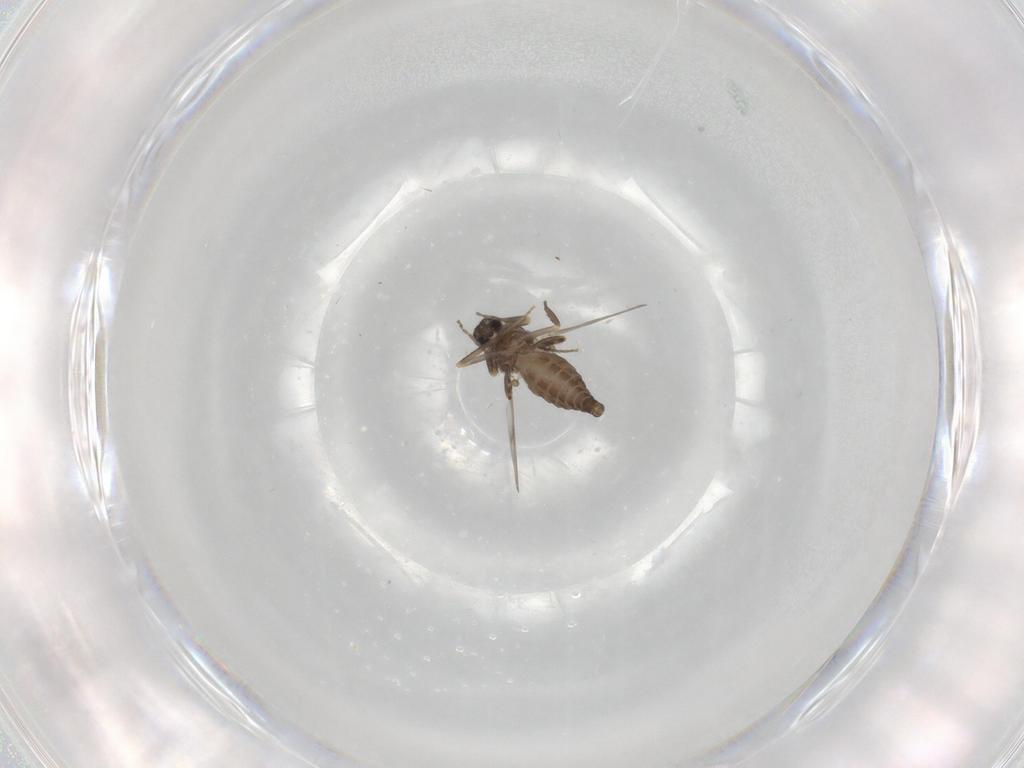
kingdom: Animalia
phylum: Arthropoda
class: Insecta
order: Diptera
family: Ceratopogonidae
